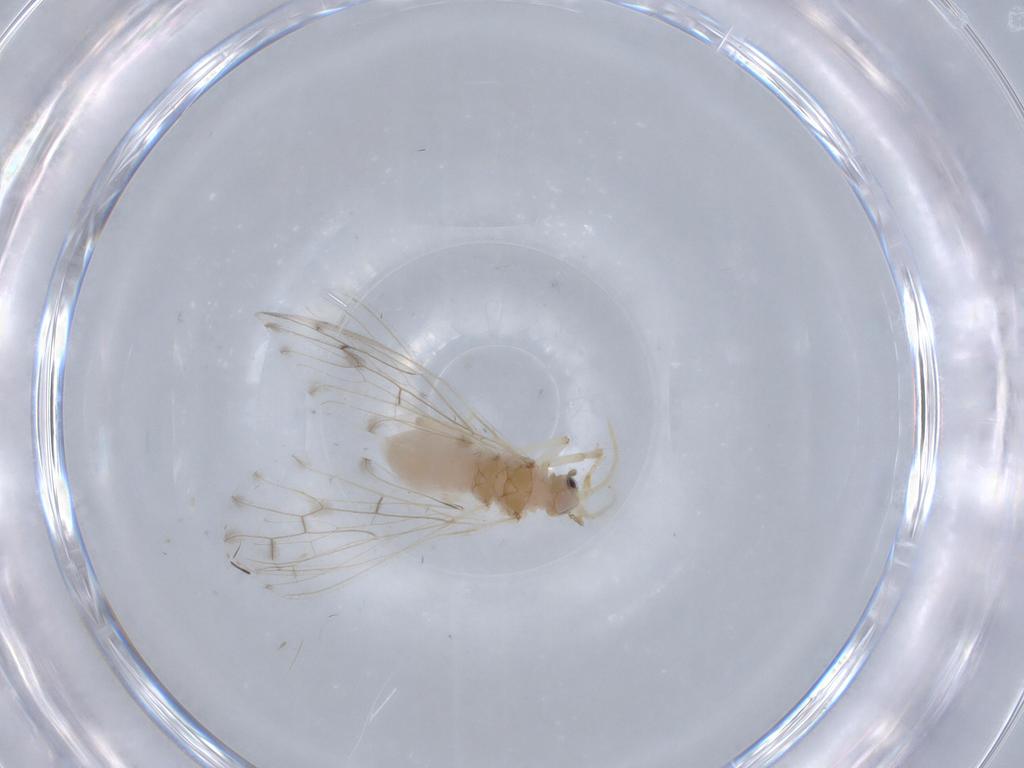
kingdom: Animalia
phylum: Arthropoda
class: Insecta
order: Neuroptera
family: Coniopterygidae
